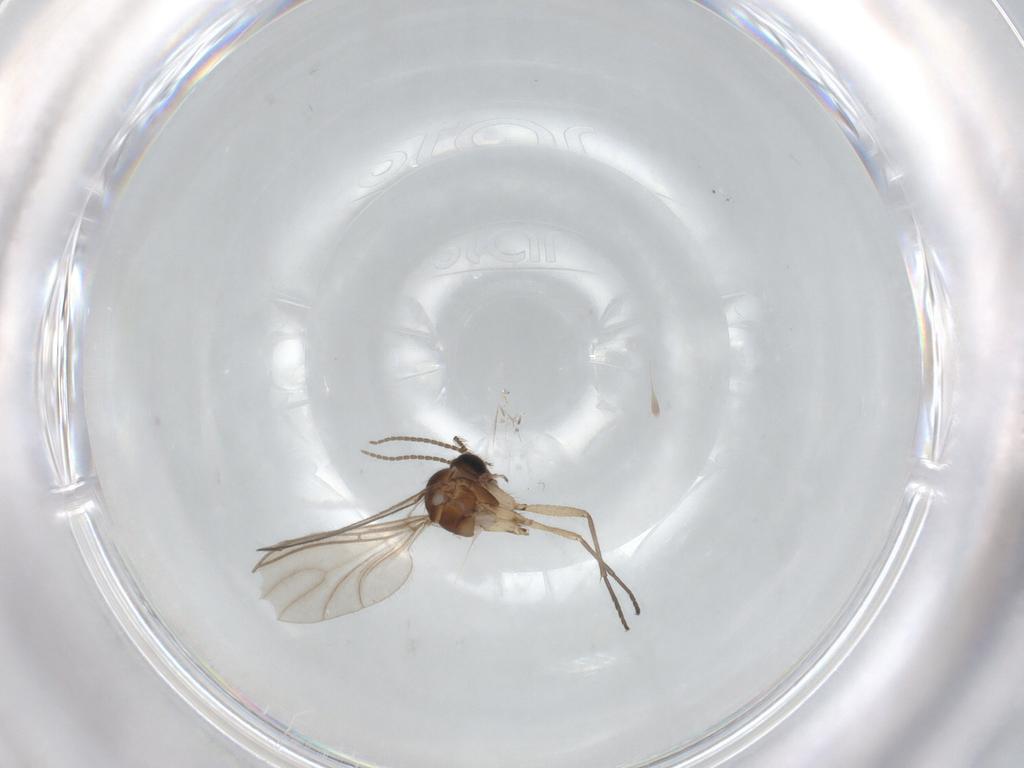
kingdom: Animalia
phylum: Arthropoda
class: Insecta
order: Diptera
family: Sciaridae
